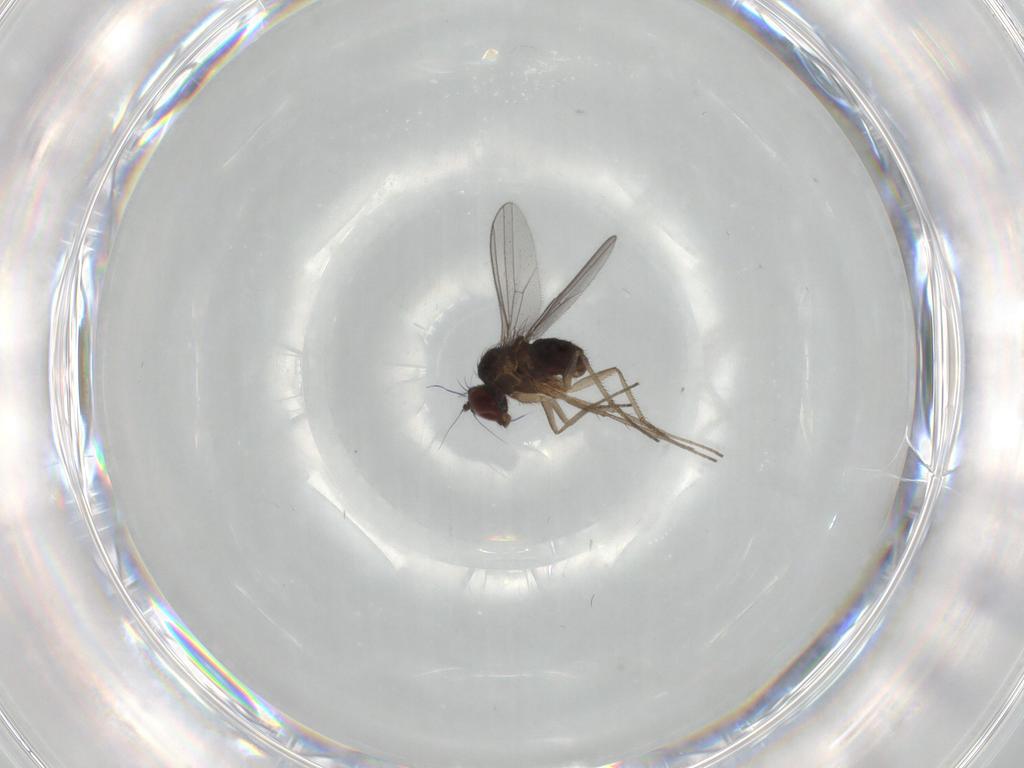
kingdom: Animalia
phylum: Arthropoda
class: Insecta
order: Diptera
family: Dolichopodidae
